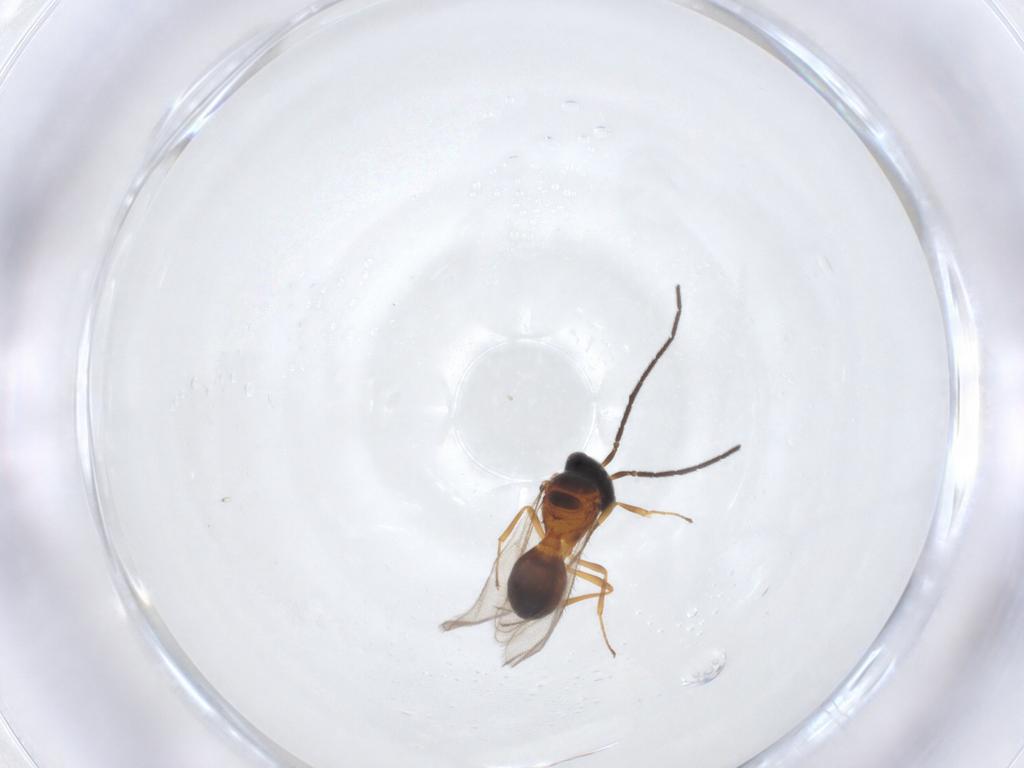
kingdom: Animalia
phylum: Arthropoda
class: Insecta
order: Hymenoptera
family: Scelionidae
